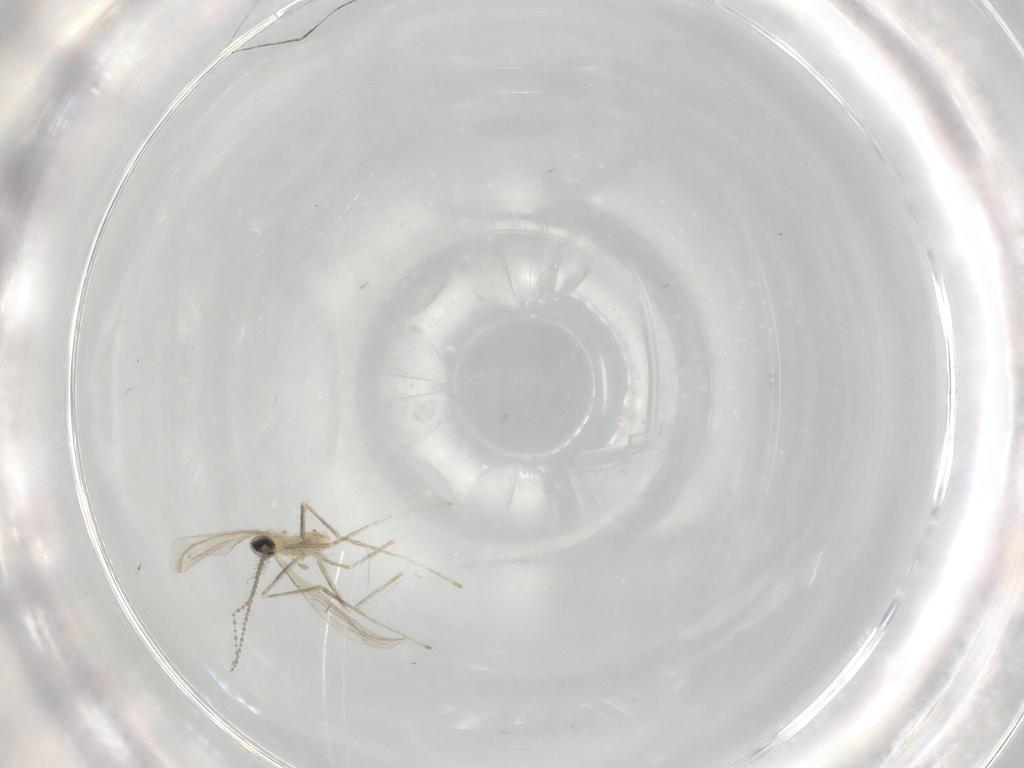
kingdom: Animalia
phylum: Arthropoda
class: Insecta
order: Diptera
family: Cecidomyiidae
